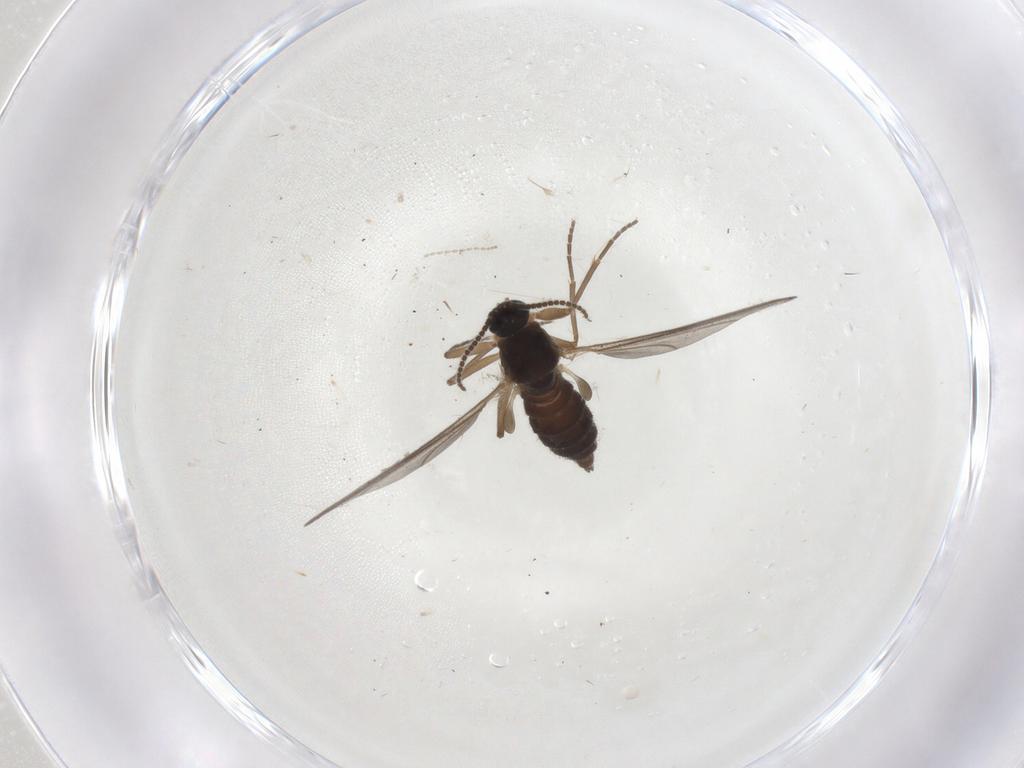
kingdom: Animalia
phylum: Arthropoda
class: Insecta
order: Diptera
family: Sciaridae
